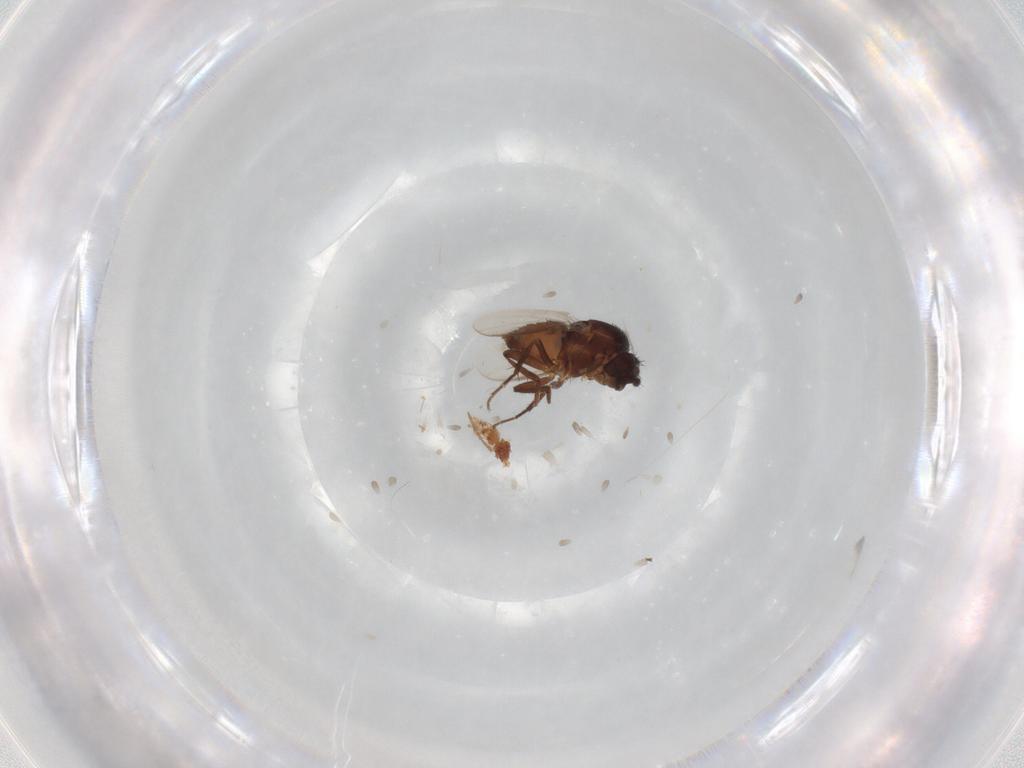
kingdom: Animalia
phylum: Arthropoda
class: Insecta
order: Diptera
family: Sphaeroceridae
